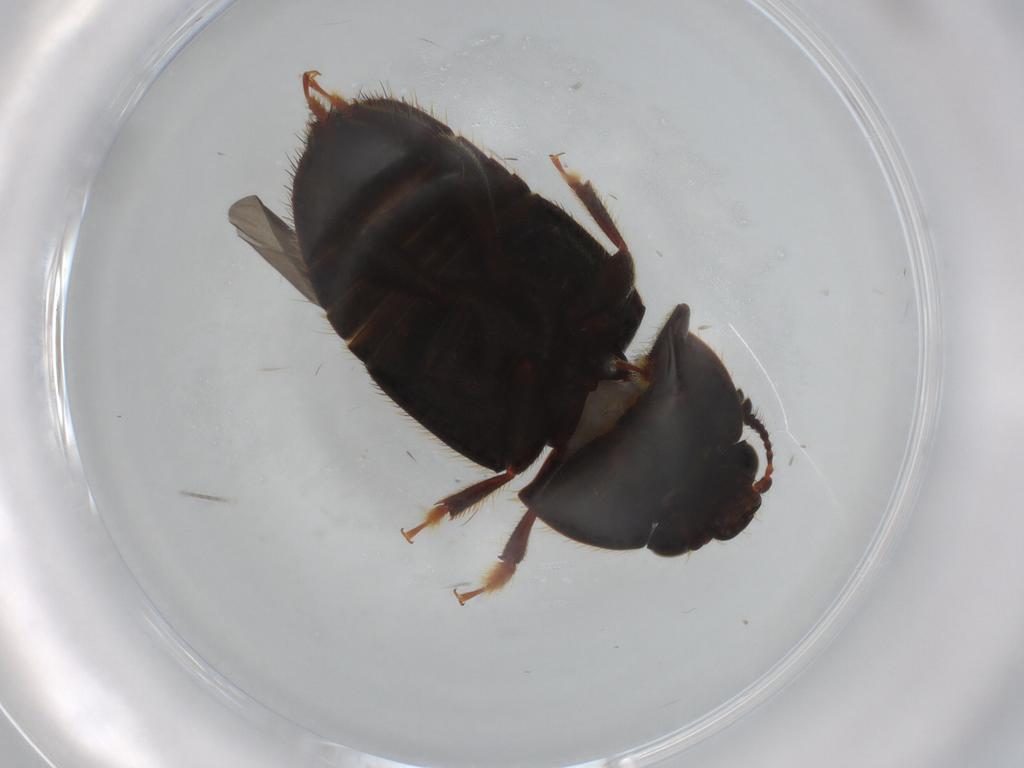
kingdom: Animalia
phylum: Arthropoda
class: Insecta
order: Coleoptera
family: Nitidulidae
